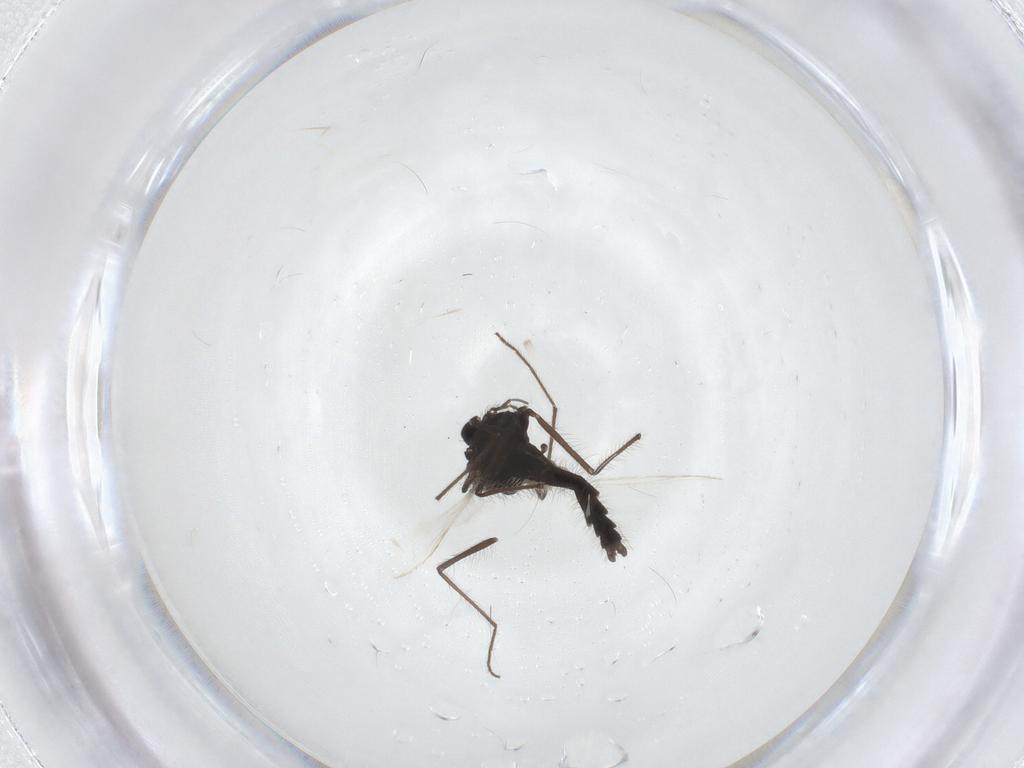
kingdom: Animalia
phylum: Arthropoda
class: Insecta
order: Diptera
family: Chironomidae
